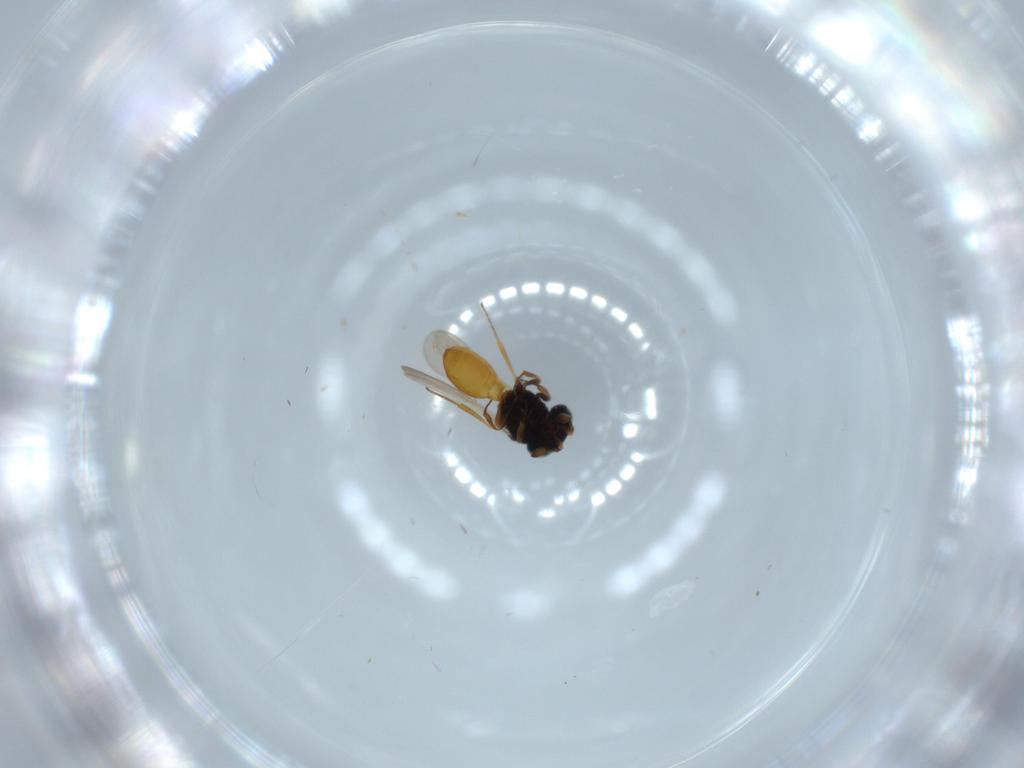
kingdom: Animalia
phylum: Arthropoda
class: Insecta
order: Hymenoptera
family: Scelionidae
